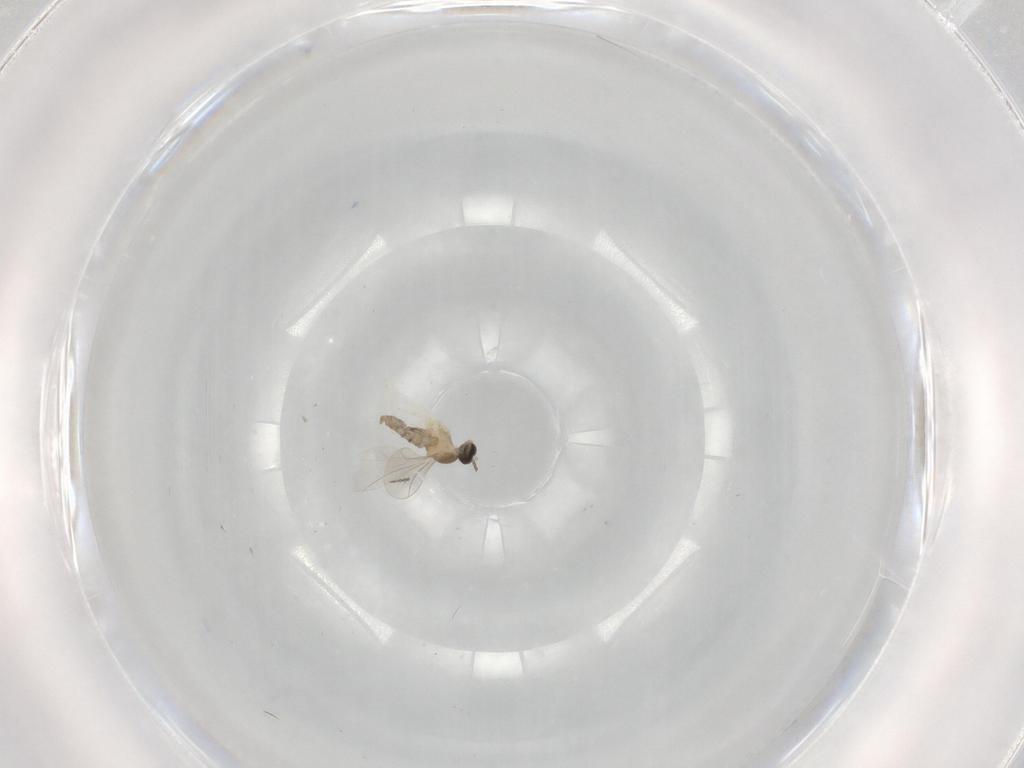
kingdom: Animalia
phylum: Arthropoda
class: Insecta
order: Diptera
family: Cecidomyiidae
